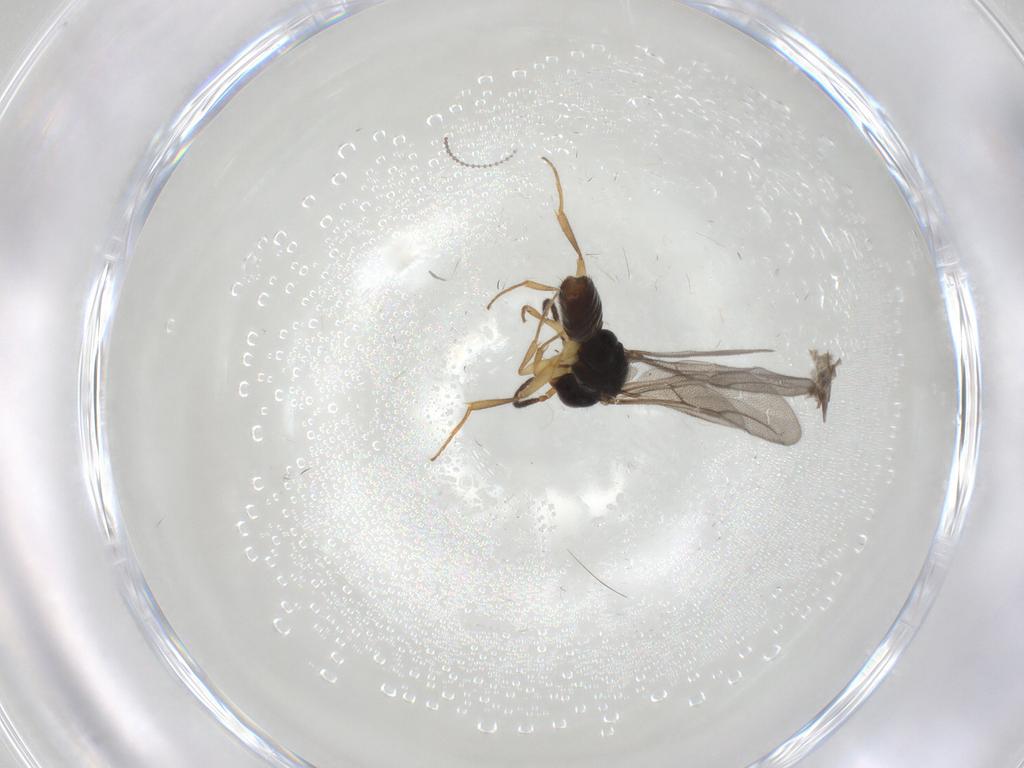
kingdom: Animalia
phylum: Arthropoda
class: Insecta
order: Hymenoptera
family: Bethylidae
